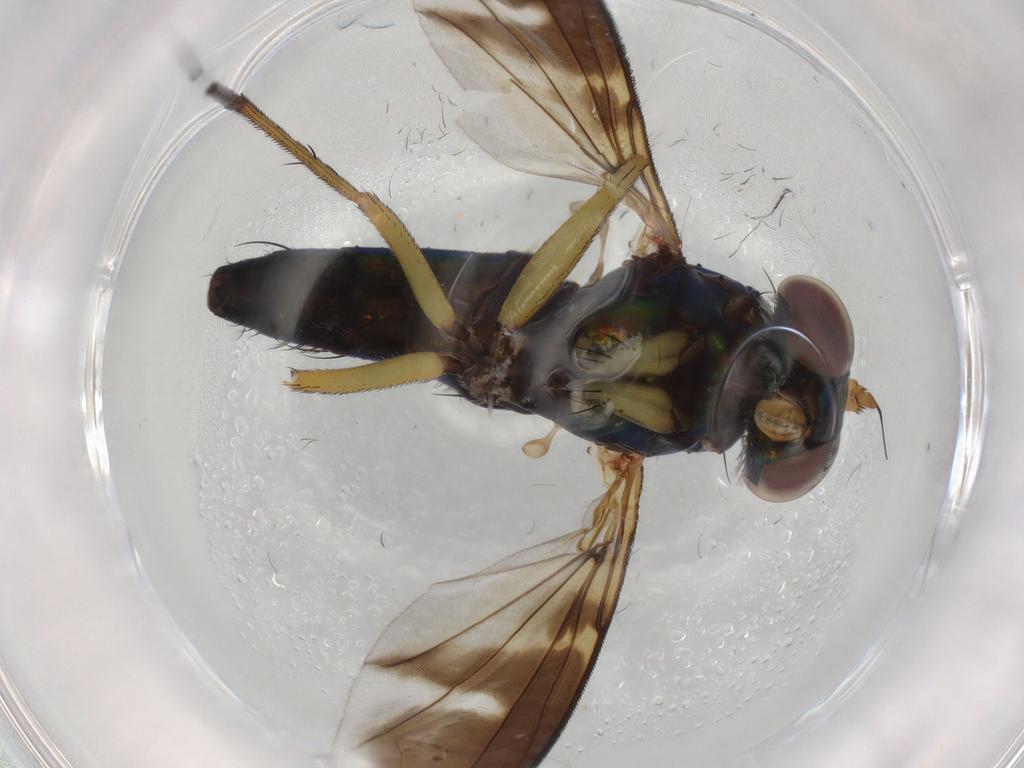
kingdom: Animalia
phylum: Arthropoda
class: Insecta
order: Diptera
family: Dolichopodidae
